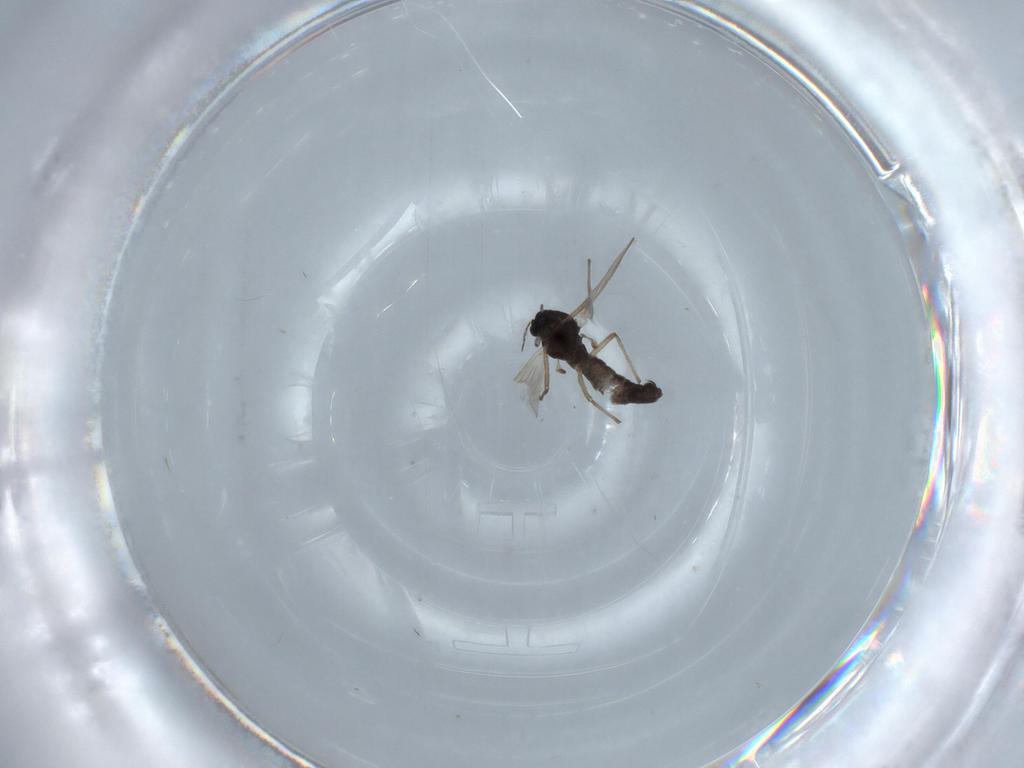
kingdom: Animalia
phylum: Arthropoda
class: Insecta
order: Diptera
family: Chironomidae
